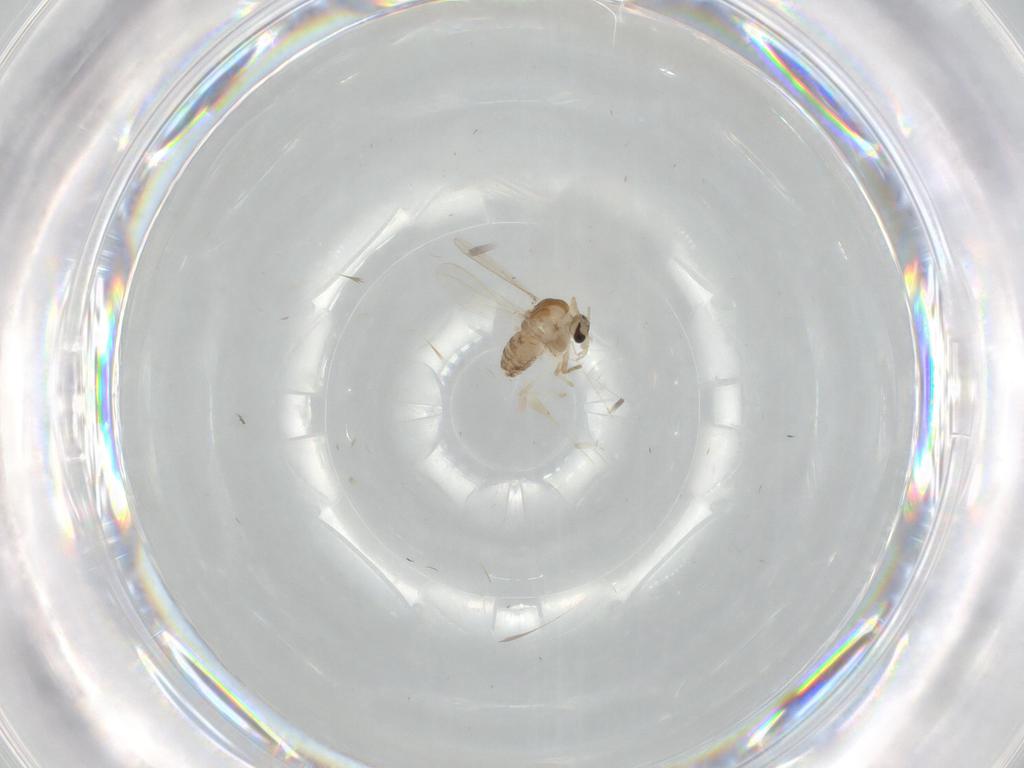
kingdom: Animalia
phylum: Arthropoda
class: Insecta
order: Diptera
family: Chironomidae
